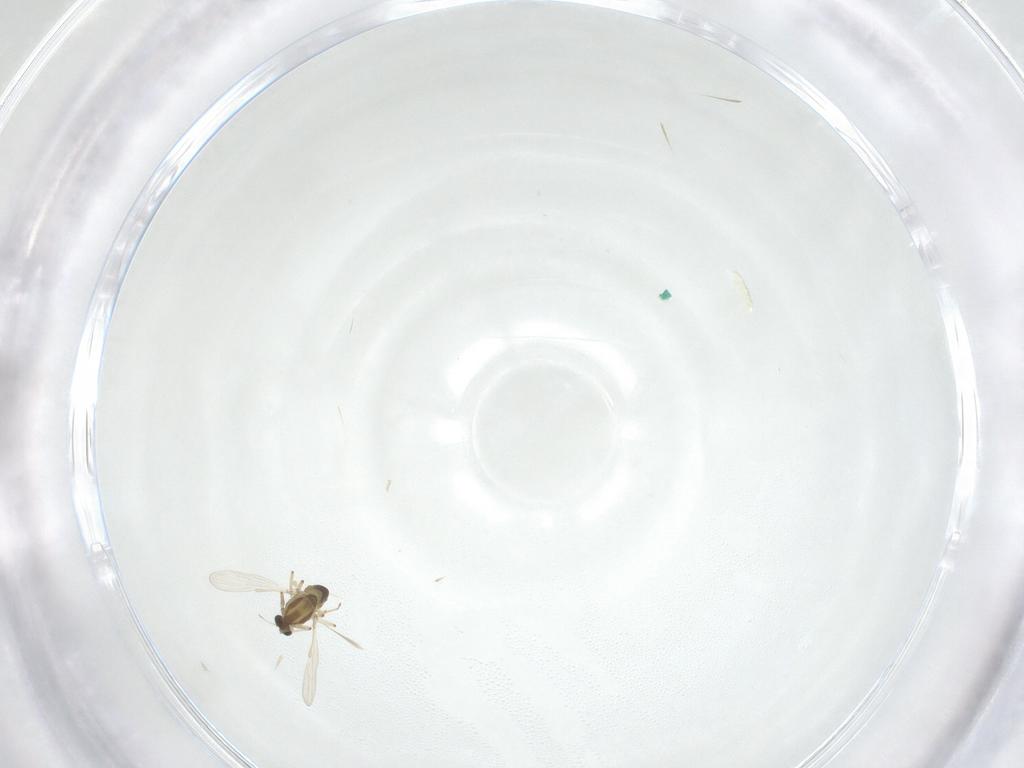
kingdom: Animalia
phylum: Arthropoda
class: Insecta
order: Diptera
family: Chironomidae
